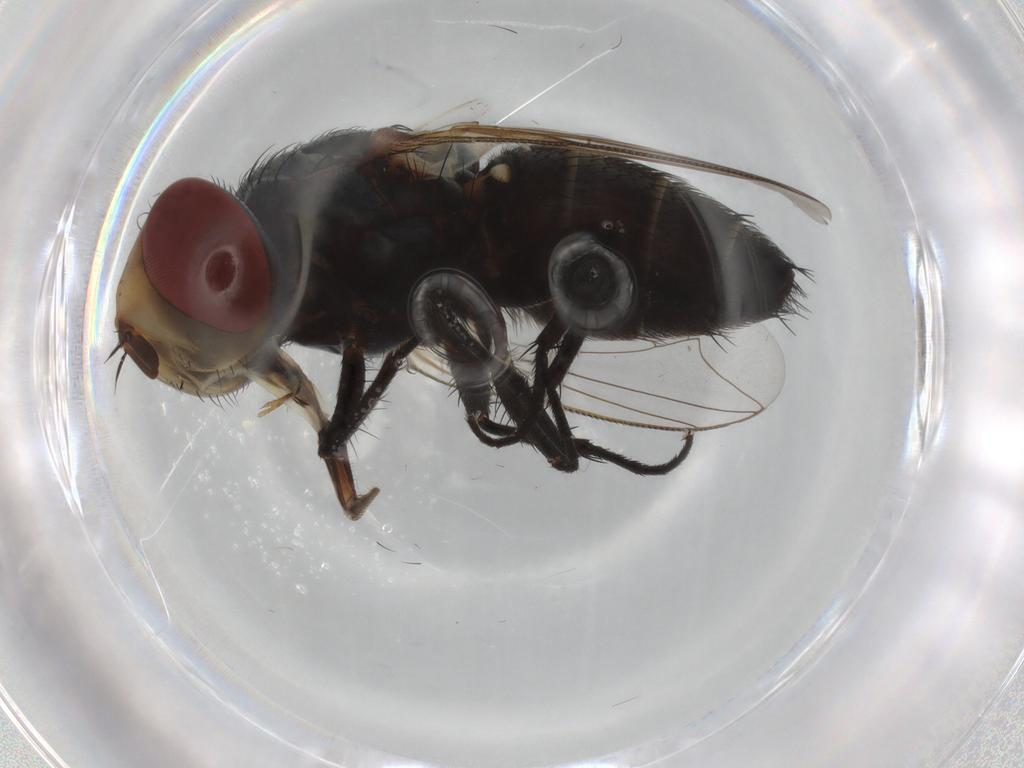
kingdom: Animalia
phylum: Arthropoda
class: Insecta
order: Diptera
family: Sarcophagidae
